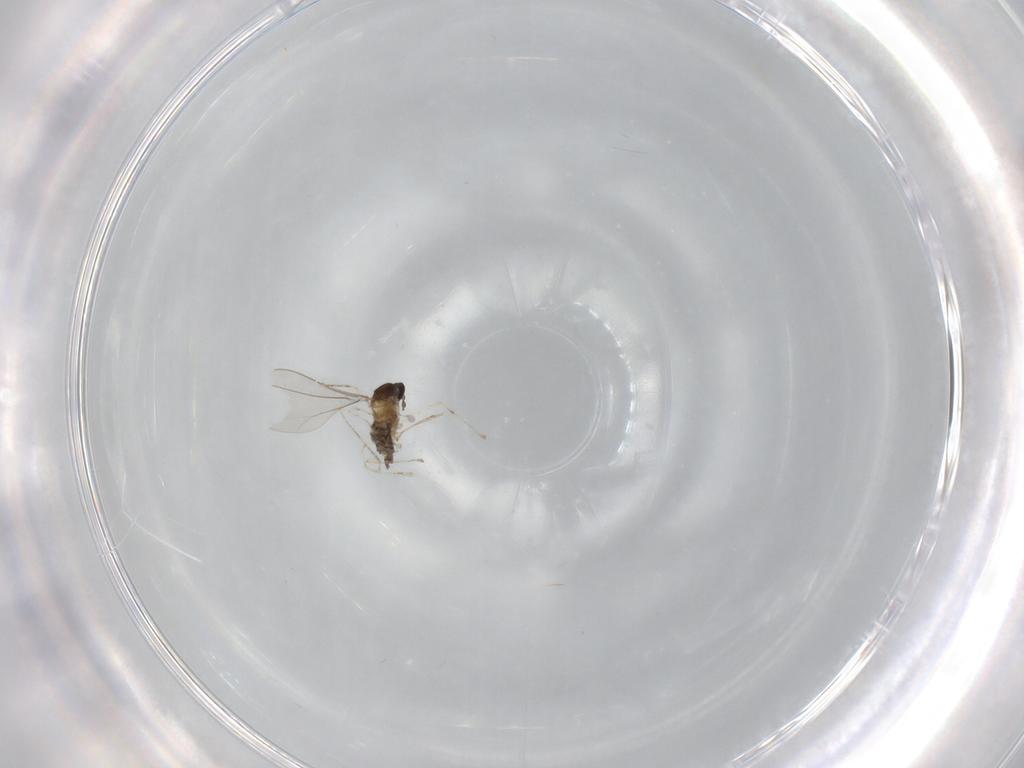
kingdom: Animalia
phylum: Arthropoda
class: Insecta
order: Diptera
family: Cecidomyiidae
